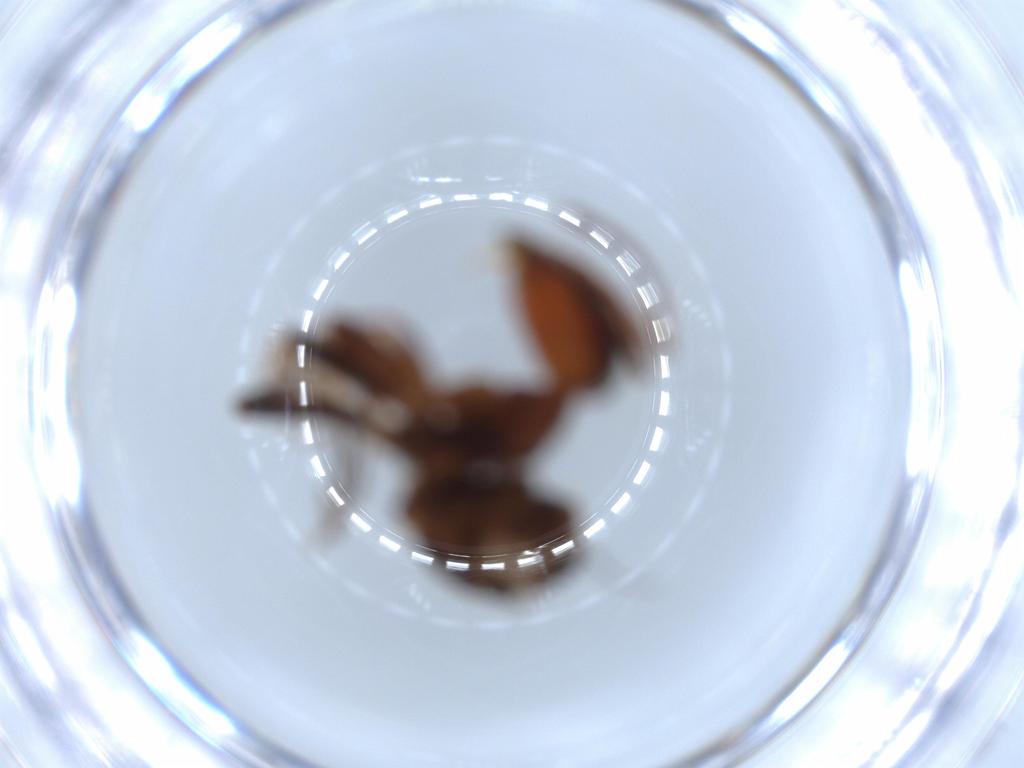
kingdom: Animalia
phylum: Arthropoda
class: Insecta
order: Hymenoptera
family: Formicidae
